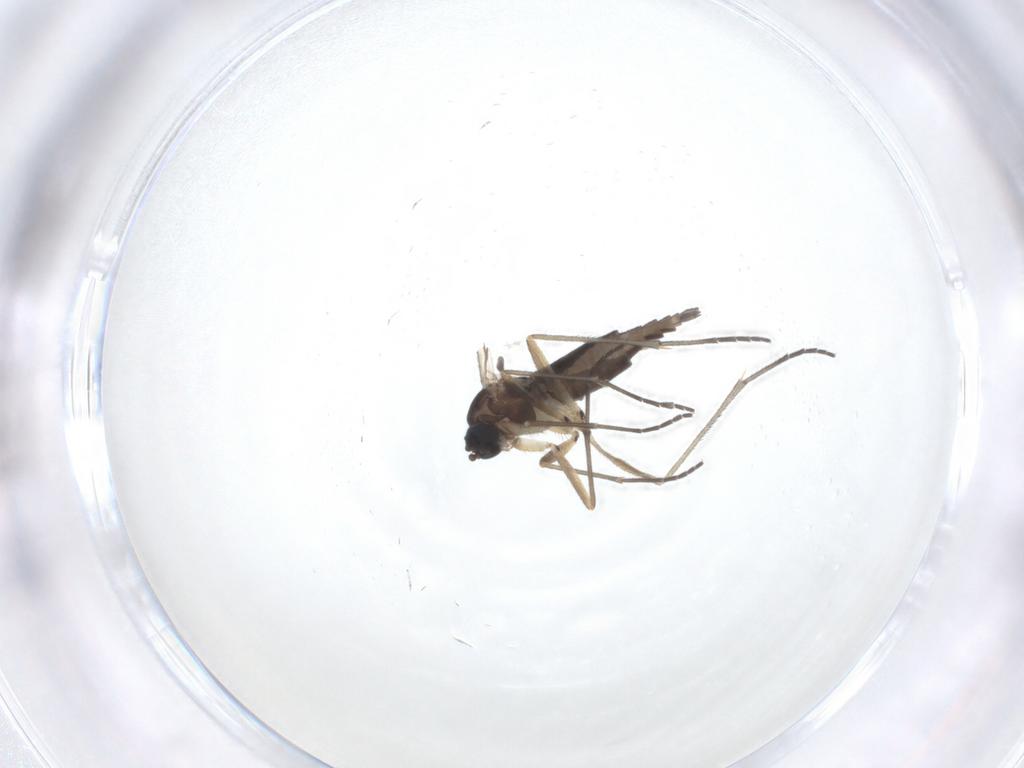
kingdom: Animalia
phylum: Arthropoda
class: Insecta
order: Diptera
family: Sciaridae
